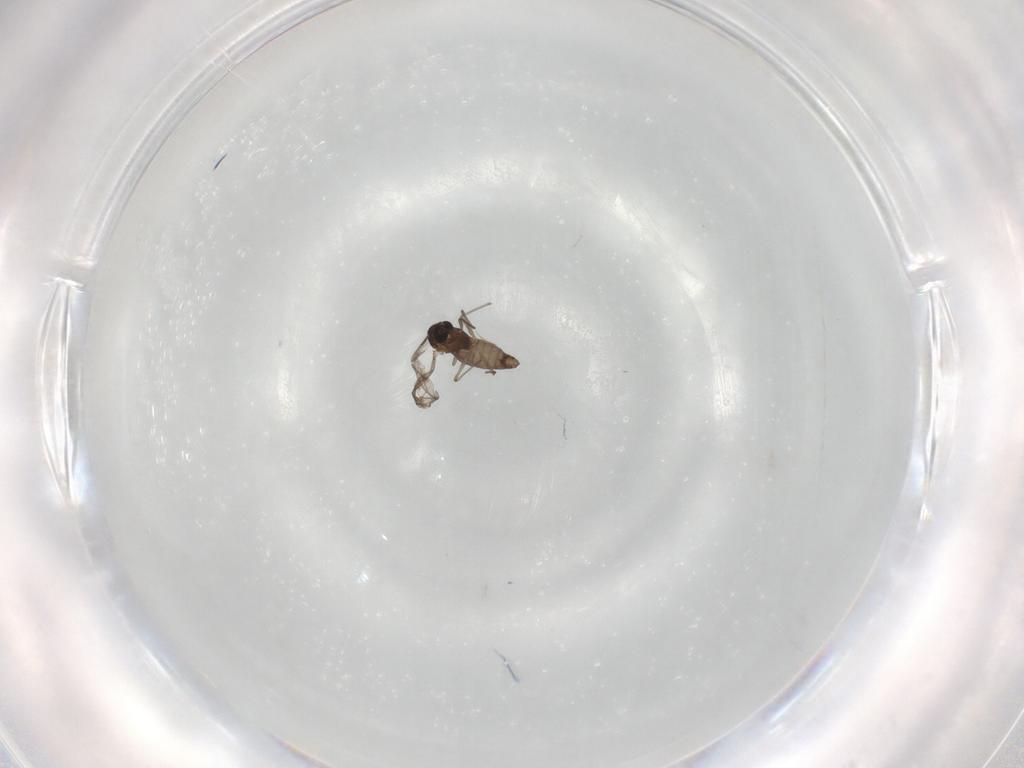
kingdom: Animalia
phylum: Arthropoda
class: Insecta
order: Diptera
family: Chironomidae
